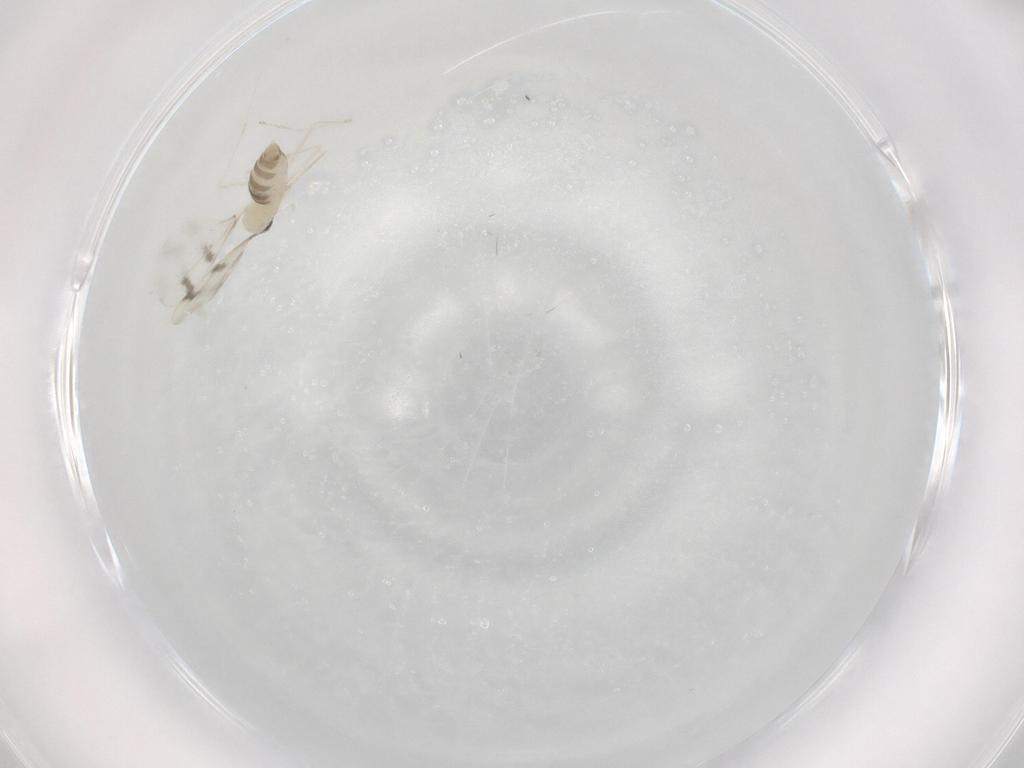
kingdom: Animalia
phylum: Arthropoda
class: Insecta
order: Diptera
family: Cecidomyiidae
